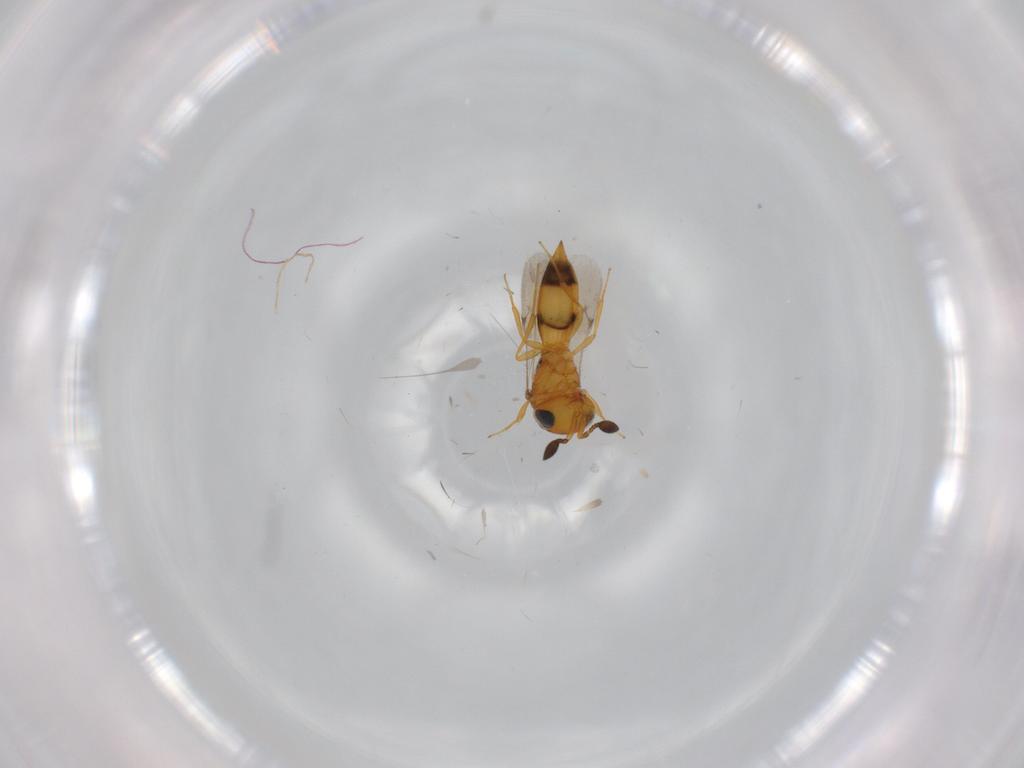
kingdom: Animalia
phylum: Arthropoda
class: Insecta
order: Hymenoptera
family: Scelionidae
